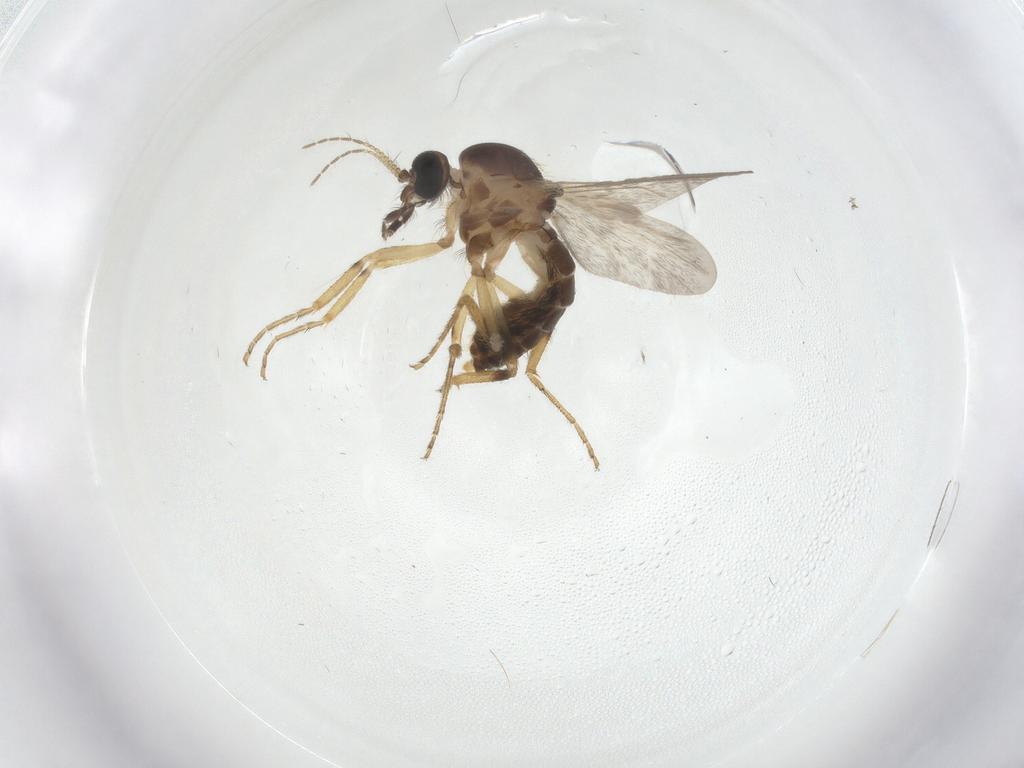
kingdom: Animalia
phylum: Arthropoda
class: Insecta
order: Diptera
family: Ceratopogonidae
